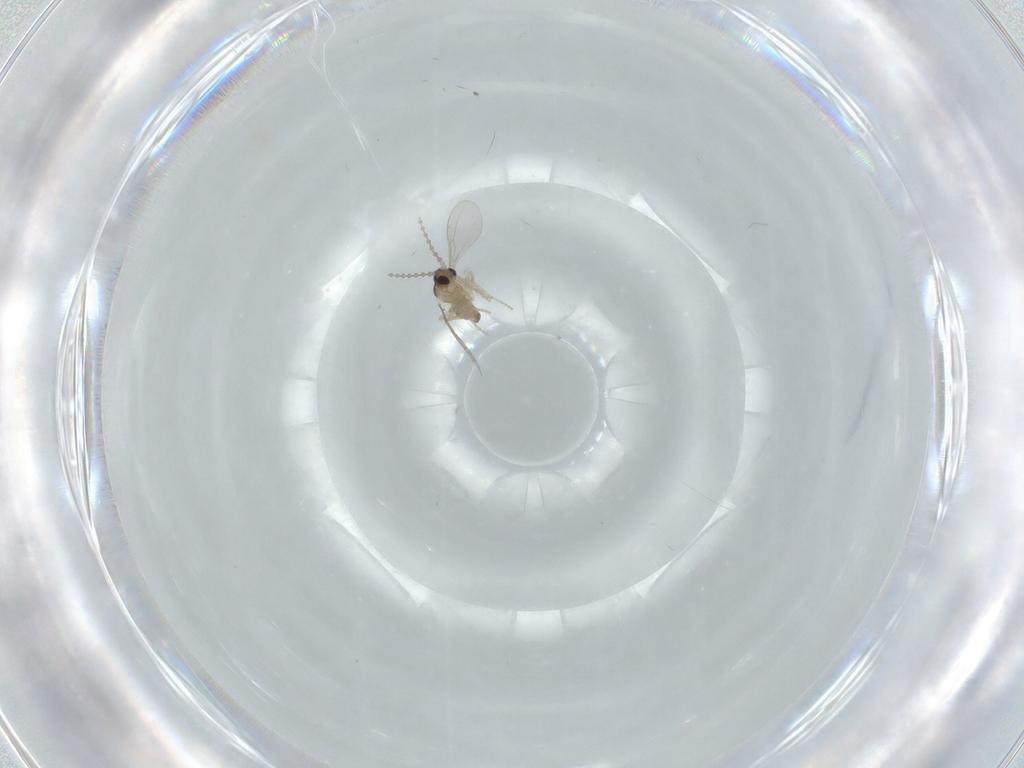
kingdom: Animalia
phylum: Arthropoda
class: Insecta
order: Diptera
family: Cecidomyiidae
